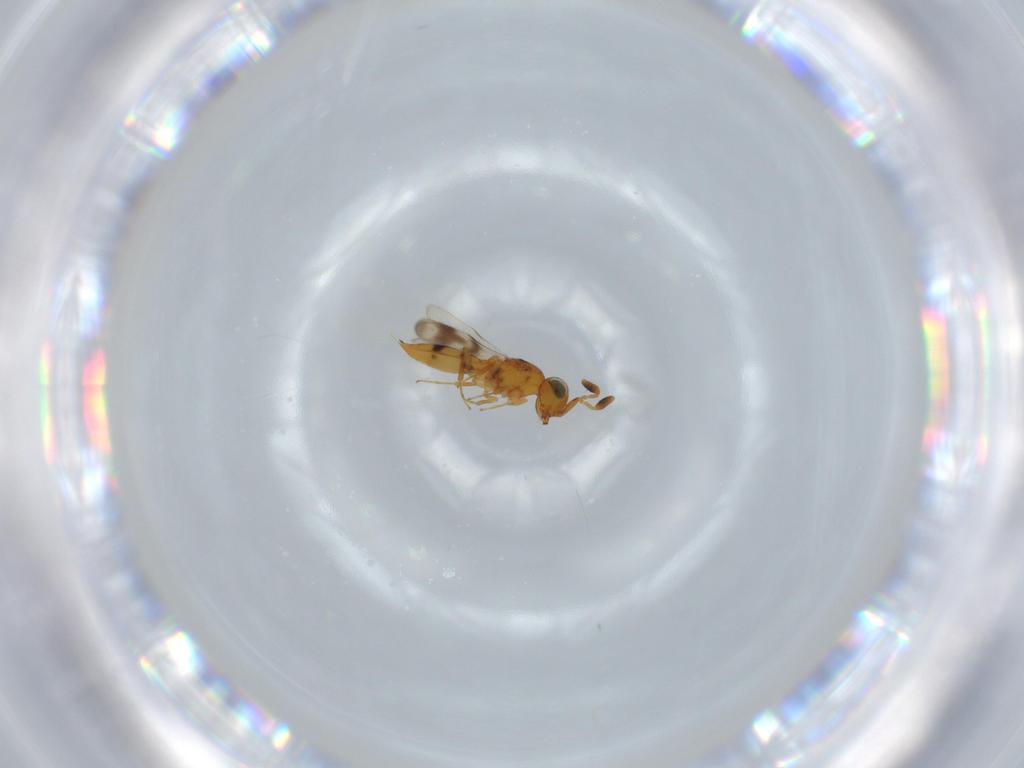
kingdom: Animalia
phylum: Arthropoda
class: Insecta
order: Hymenoptera
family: Scelionidae
